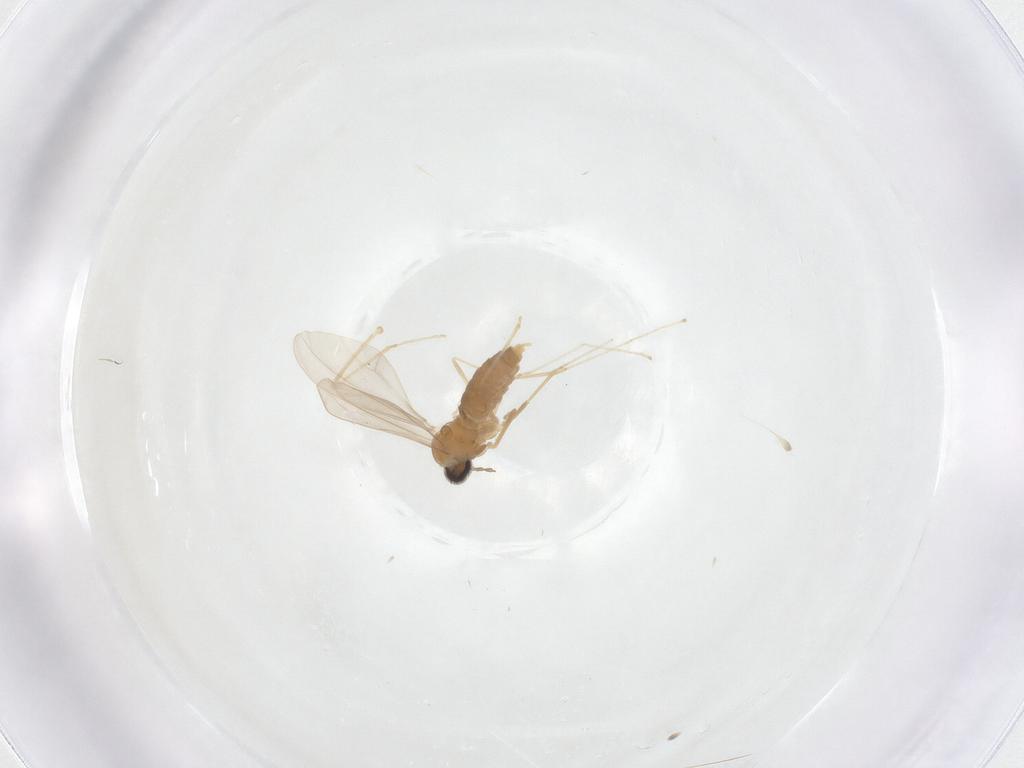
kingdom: Animalia
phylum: Arthropoda
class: Insecta
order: Diptera
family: Cecidomyiidae
